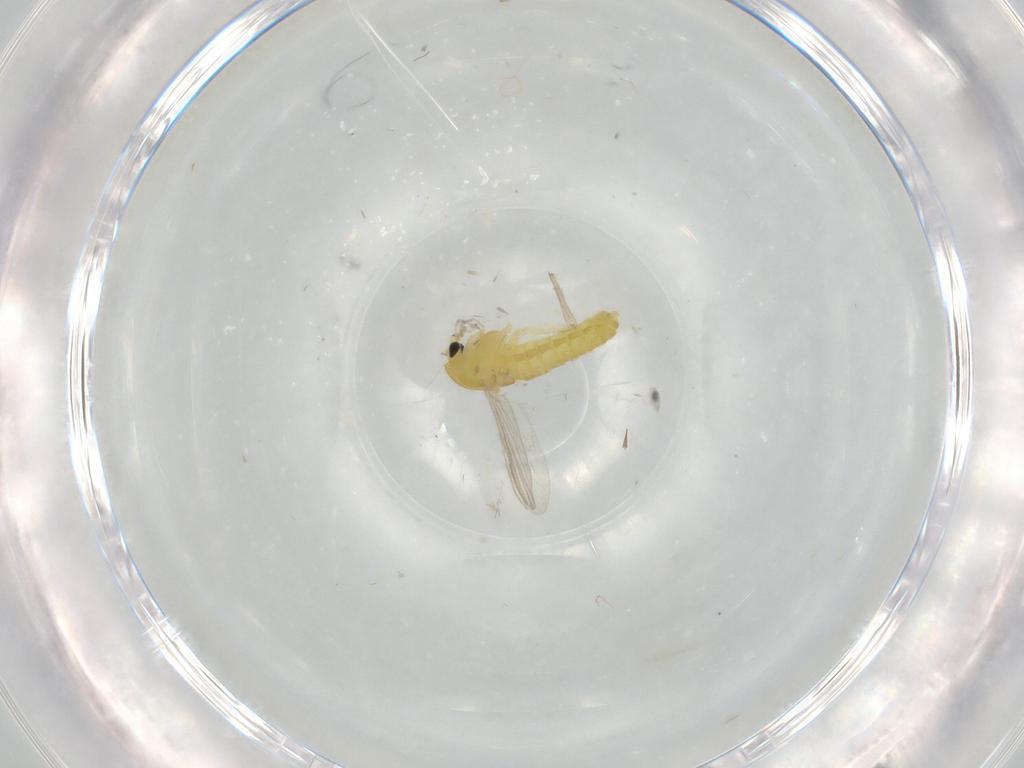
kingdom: Animalia
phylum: Arthropoda
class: Insecta
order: Diptera
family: Chironomidae
